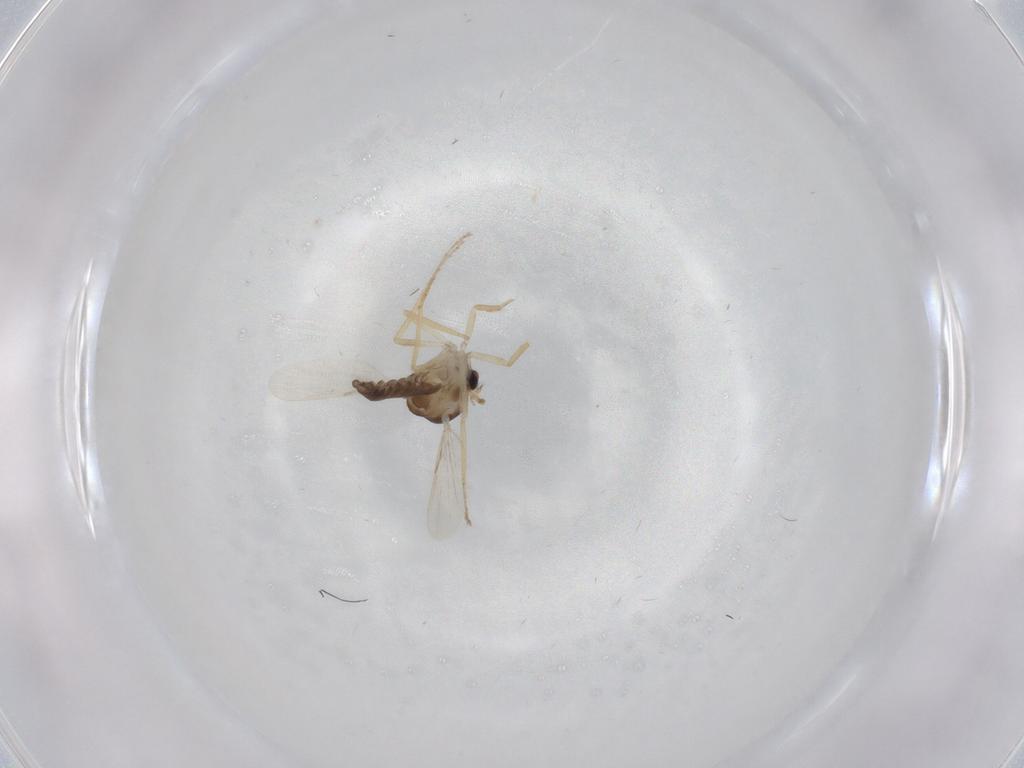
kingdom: Animalia
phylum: Arthropoda
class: Insecta
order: Diptera
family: Ceratopogonidae
